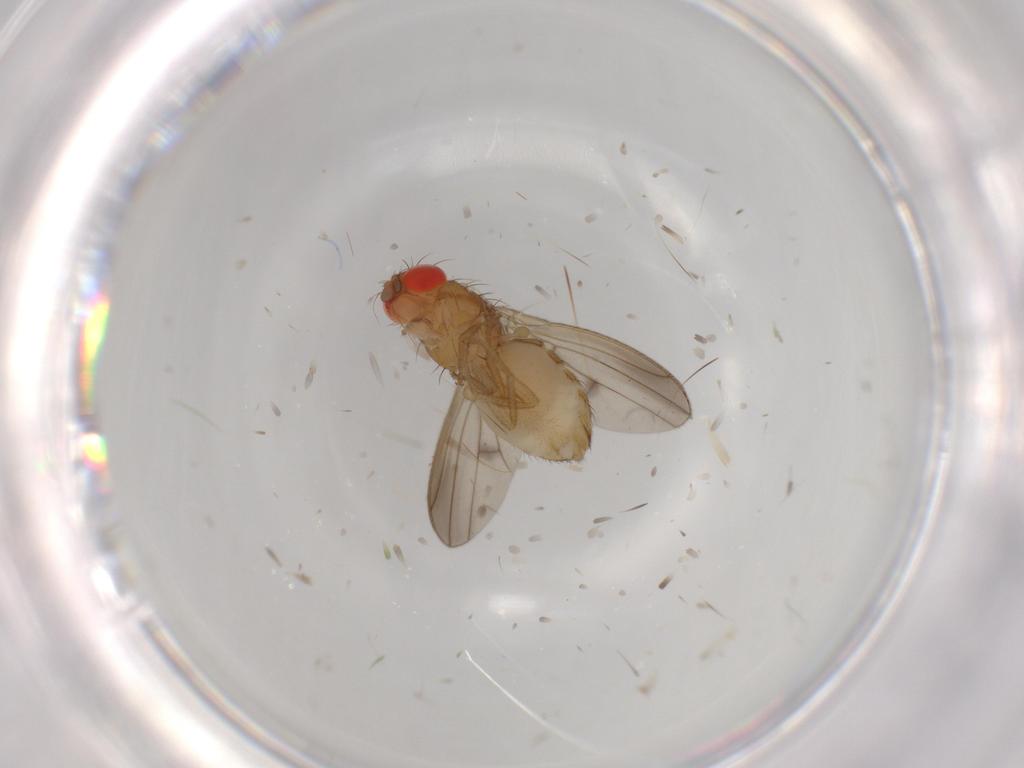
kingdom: Animalia
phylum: Arthropoda
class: Insecta
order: Diptera
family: Drosophilidae
